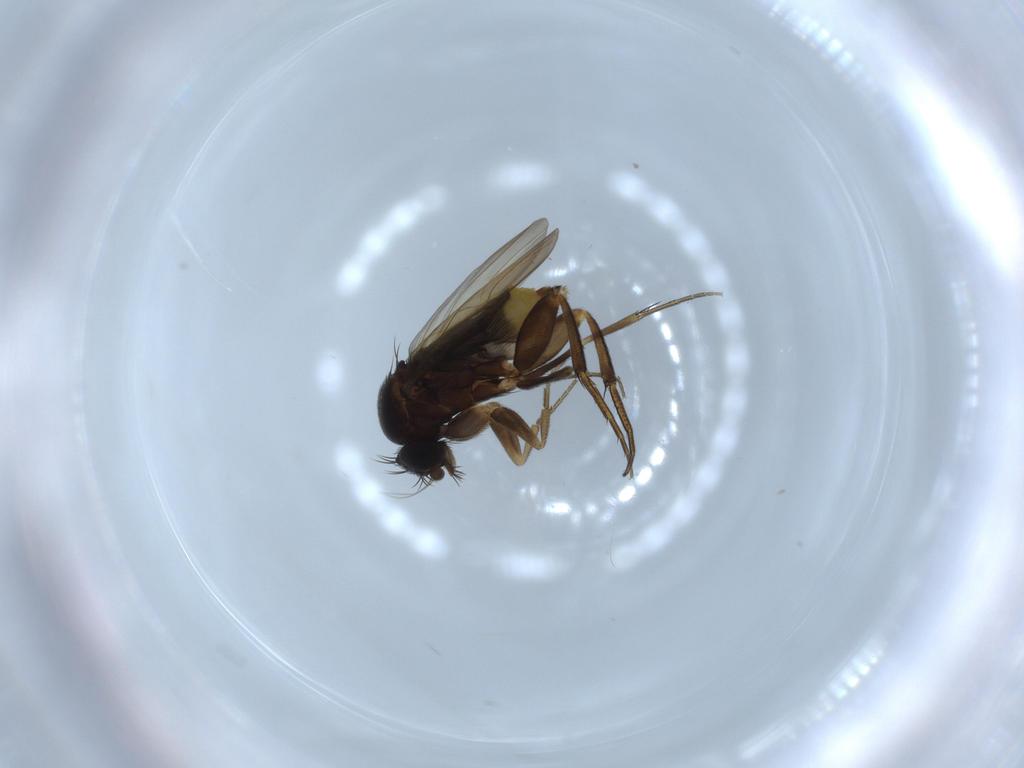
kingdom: Animalia
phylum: Arthropoda
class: Insecta
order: Diptera
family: Phoridae
